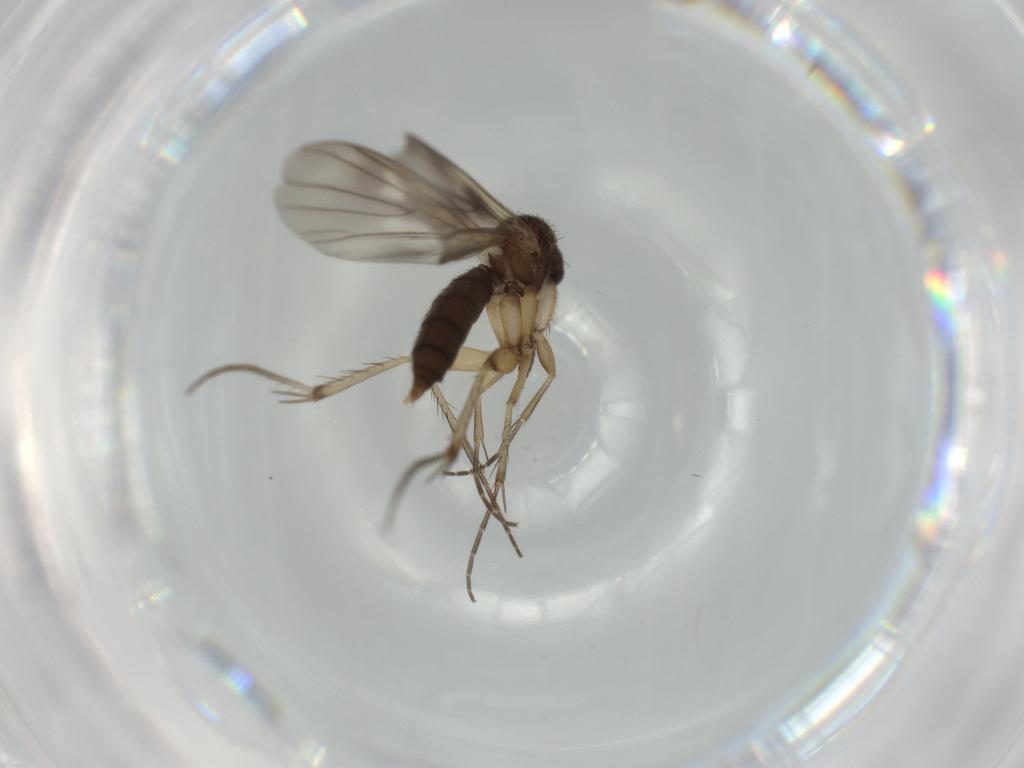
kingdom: Animalia
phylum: Arthropoda
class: Insecta
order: Diptera
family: Mycetophilidae
